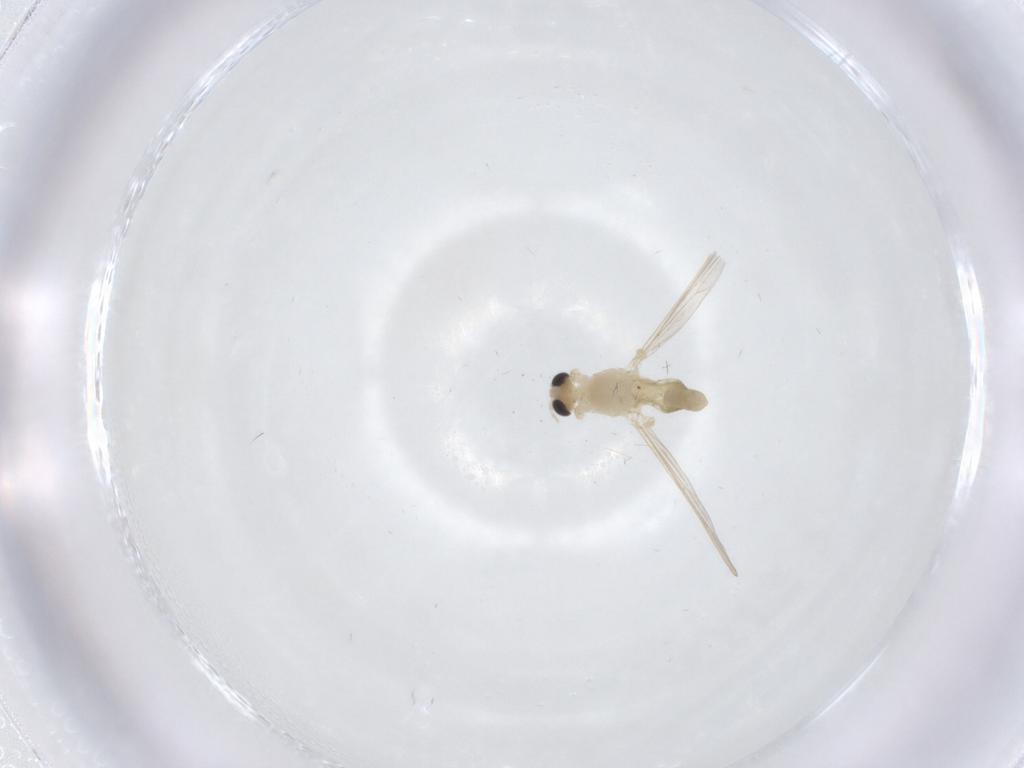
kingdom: Animalia
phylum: Arthropoda
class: Insecta
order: Diptera
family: Chironomidae
